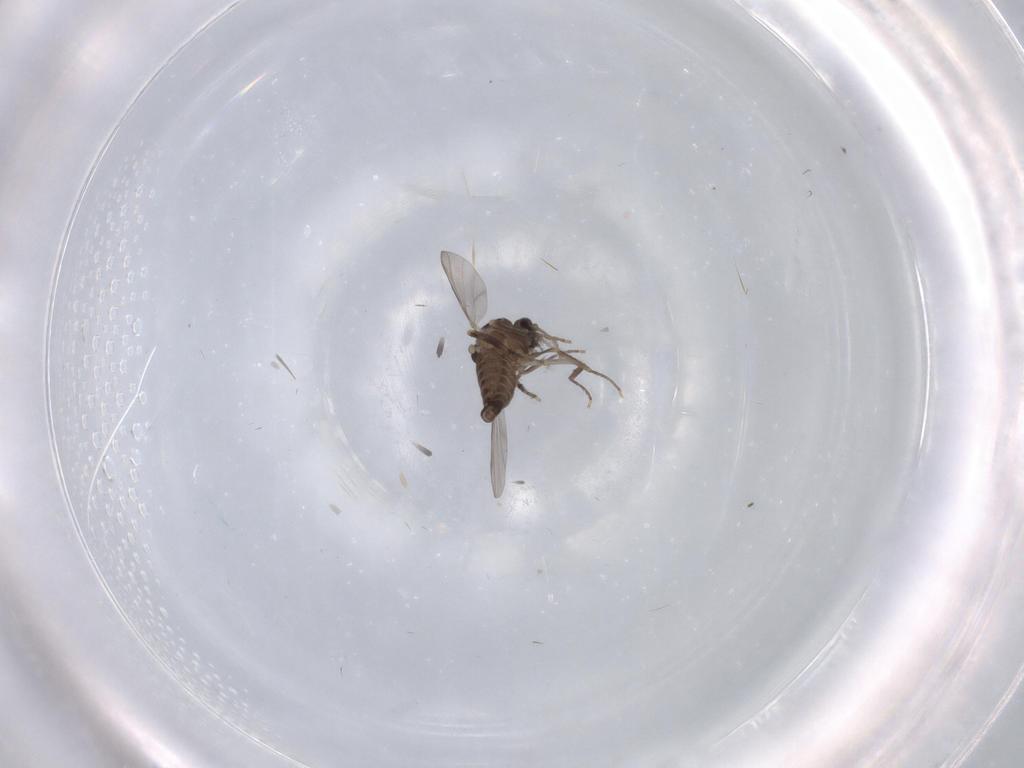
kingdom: Animalia
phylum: Arthropoda
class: Insecta
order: Diptera
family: Ceratopogonidae
